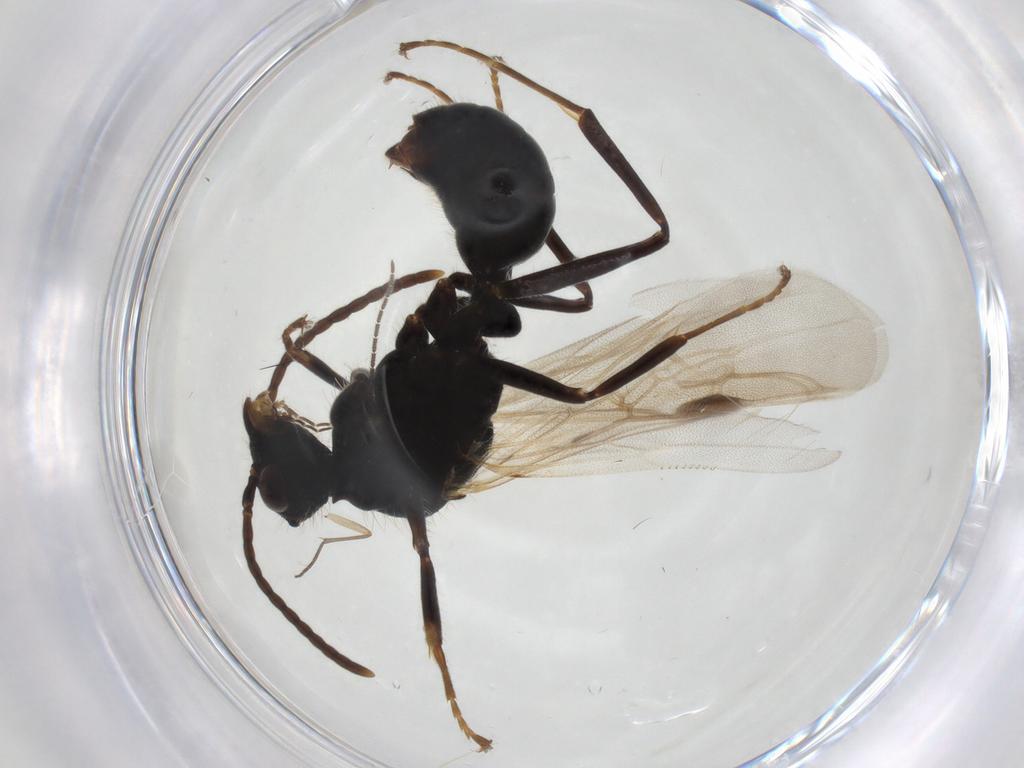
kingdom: Animalia
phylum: Arthropoda
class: Insecta
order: Hymenoptera
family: Formicidae
